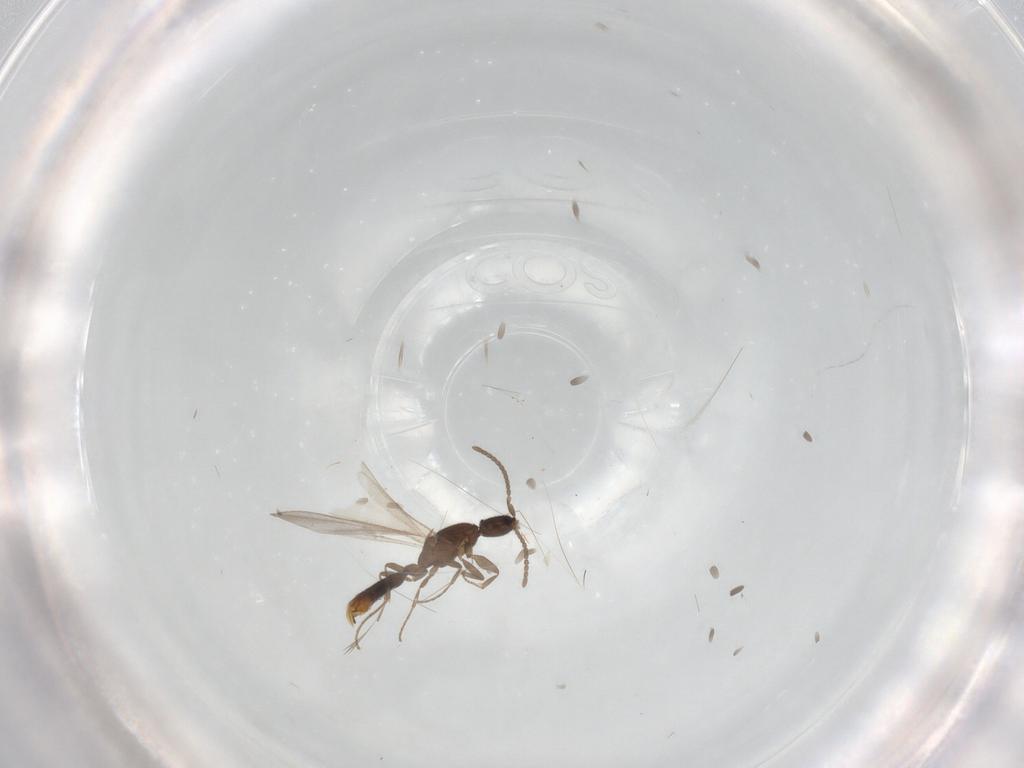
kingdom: Animalia
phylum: Arthropoda
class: Insecta
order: Hymenoptera
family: Formicidae
